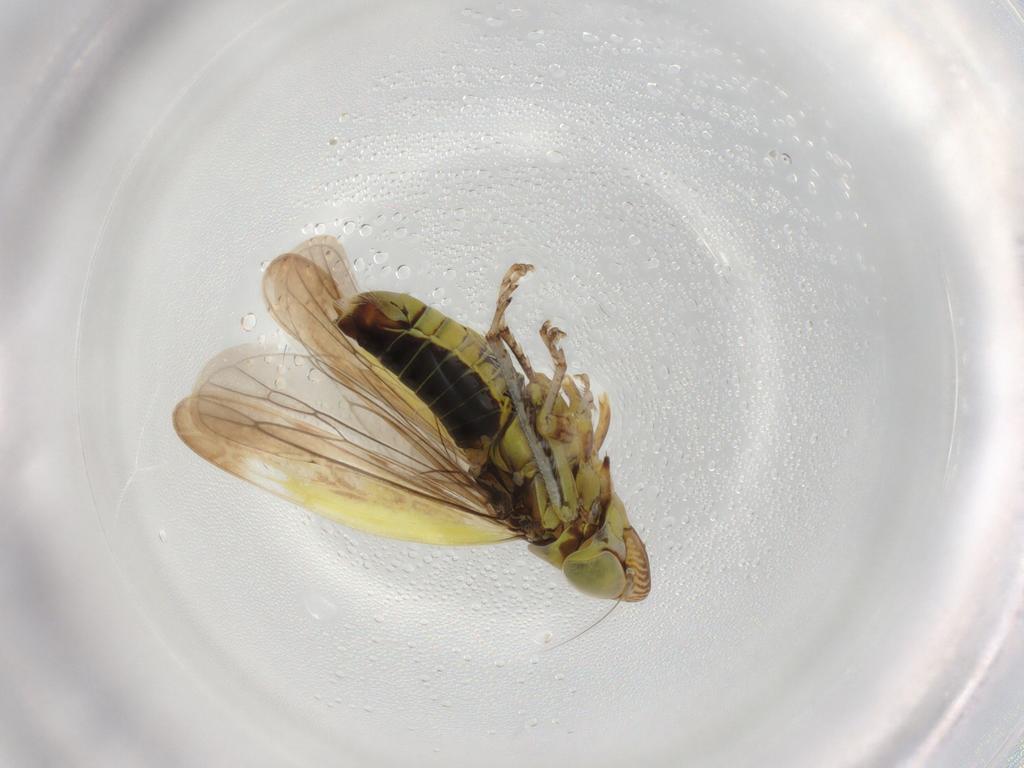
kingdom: Animalia
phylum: Arthropoda
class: Insecta
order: Hemiptera
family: Cicadellidae
